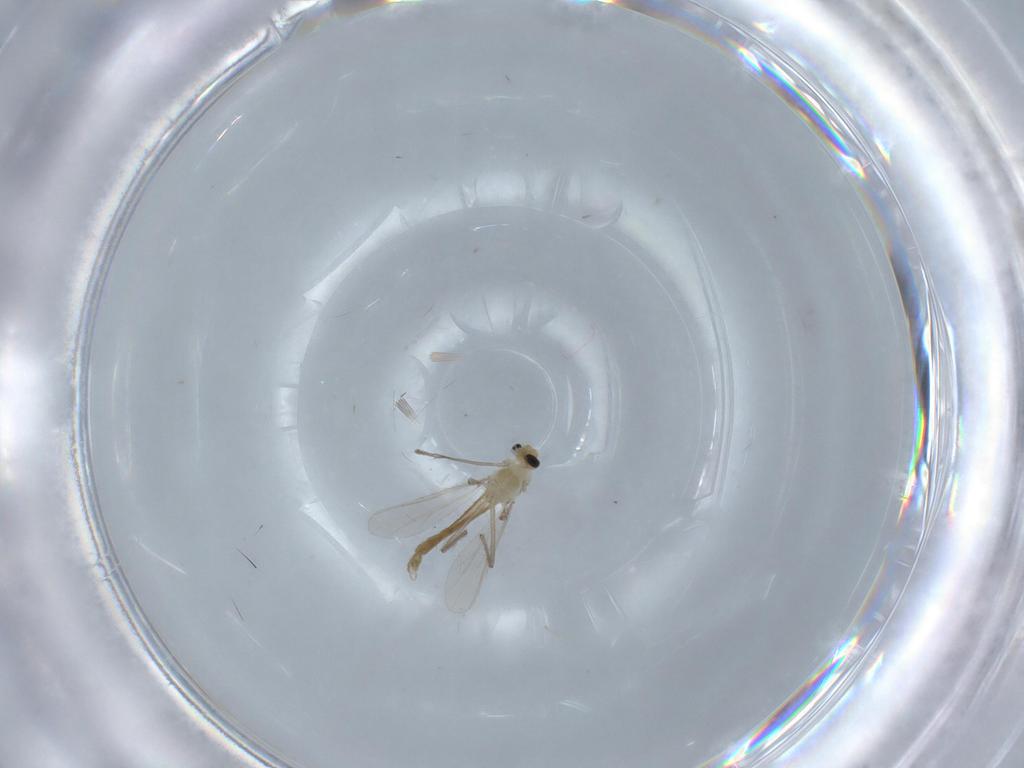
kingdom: Animalia
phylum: Arthropoda
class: Insecta
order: Diptera
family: Chironomidae
